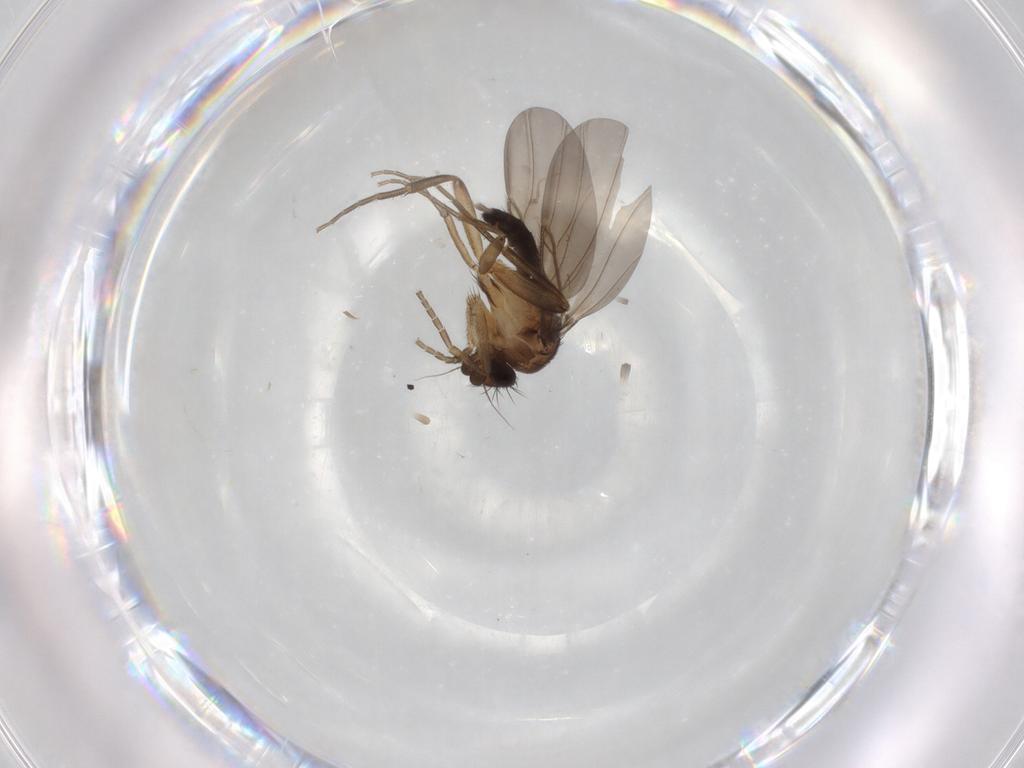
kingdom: Animalia
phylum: Arthropoda
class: Insecta
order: Diptera
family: Phoridae
